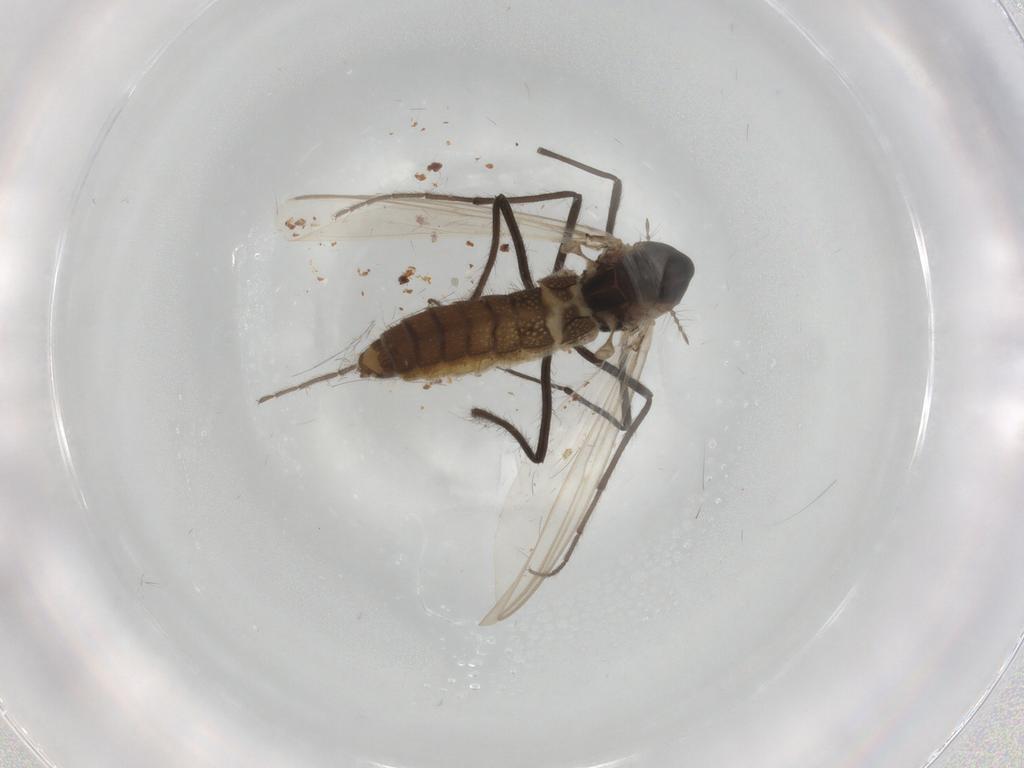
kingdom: Animalia
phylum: Arthropoda
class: Insecta
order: Diptera
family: Chironomidae
